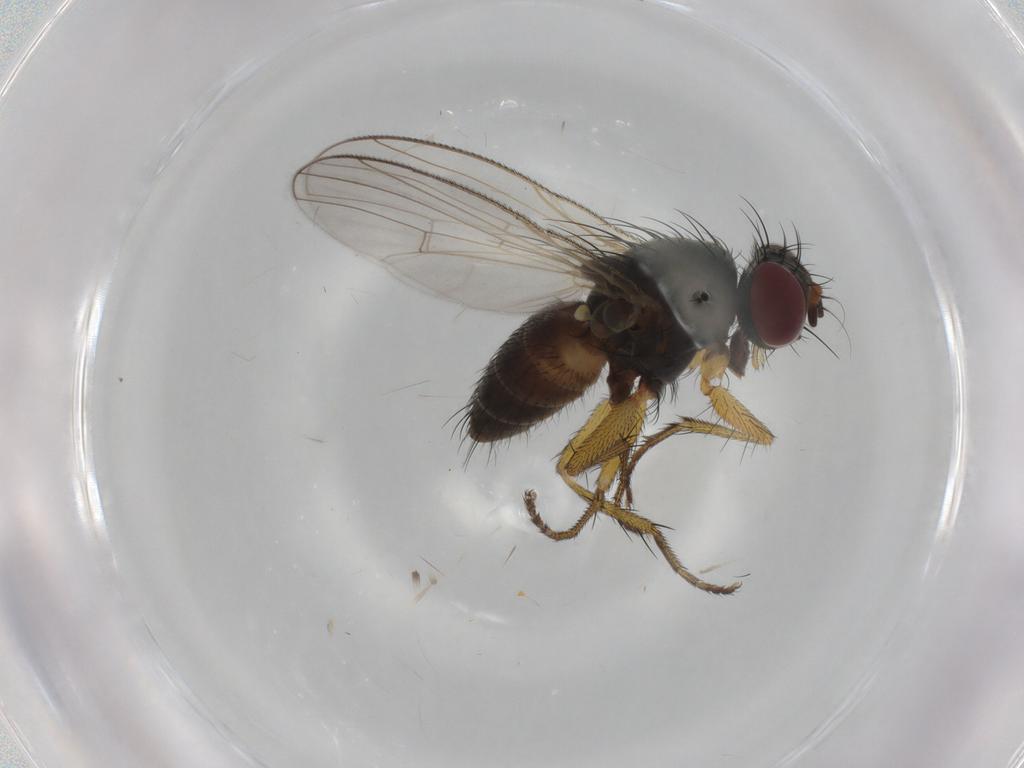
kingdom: Animalia
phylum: Arthropoda
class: Insecta
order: Diptera
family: Muscidae
